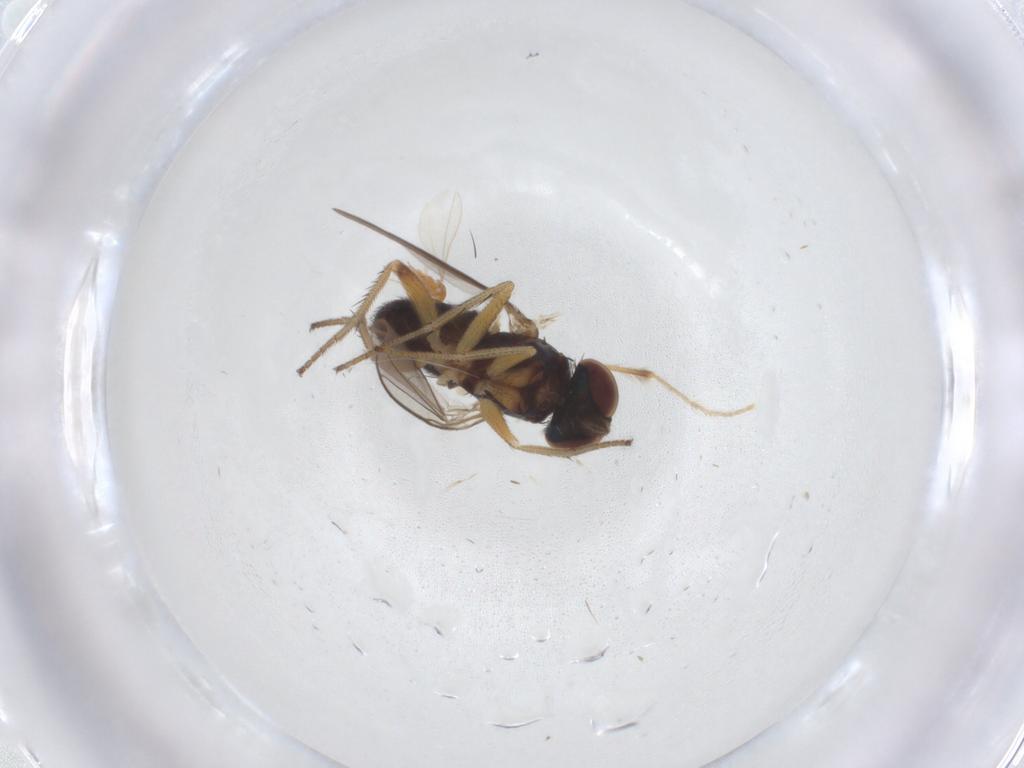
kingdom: Animalia
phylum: Arthropoda
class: Insecta
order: Diptera
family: Cecidomyiidae
